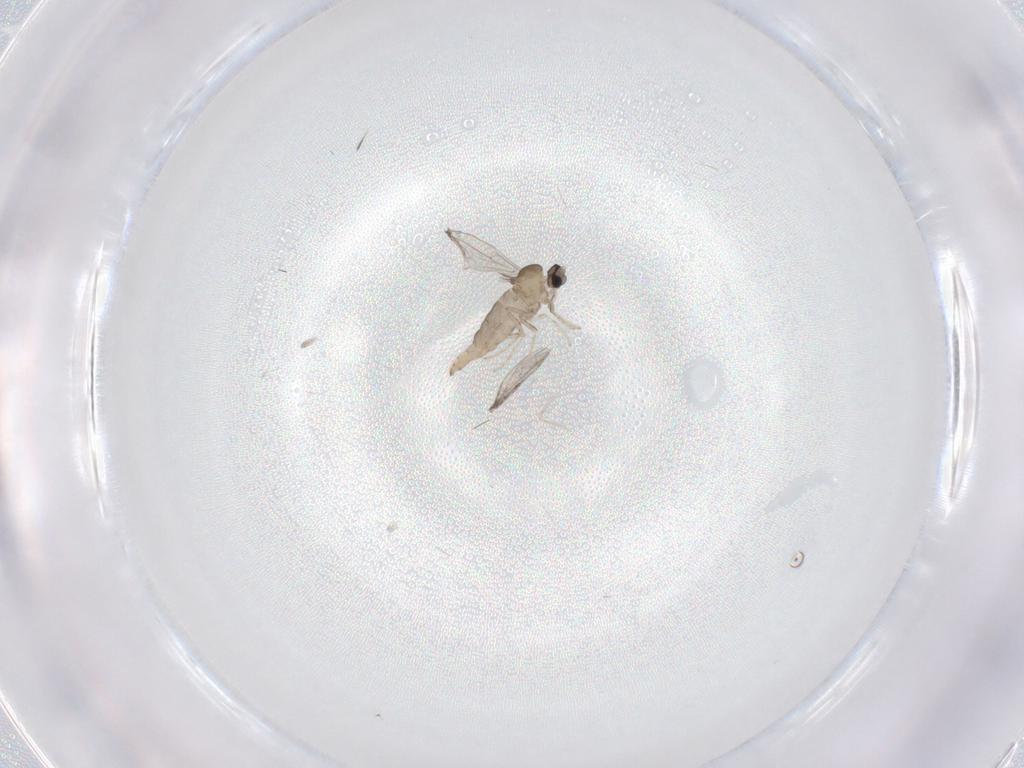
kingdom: Animalia
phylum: Arthropoda
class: Insecta
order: Diptera
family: Cecidomyiidae
